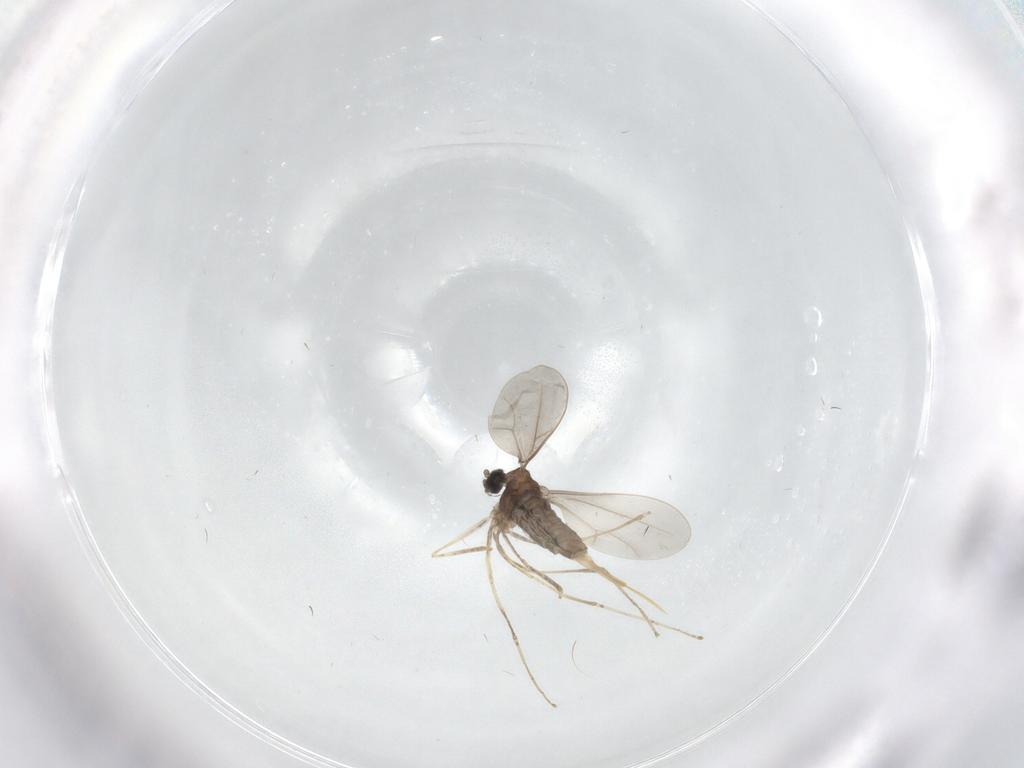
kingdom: Animalia
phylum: Arthropoda
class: Insecta
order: Diptera
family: Cecidomyiidae
